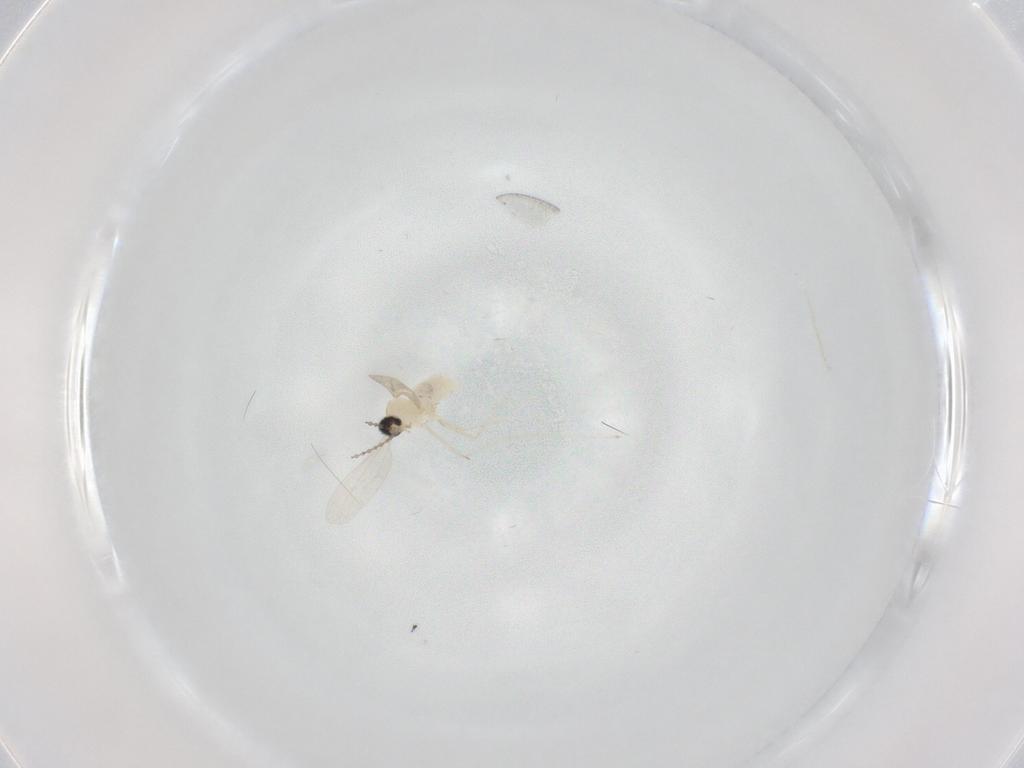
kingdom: Animalia
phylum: Arthropoda
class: Insecta
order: Diptera
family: Cecidomyiidae
